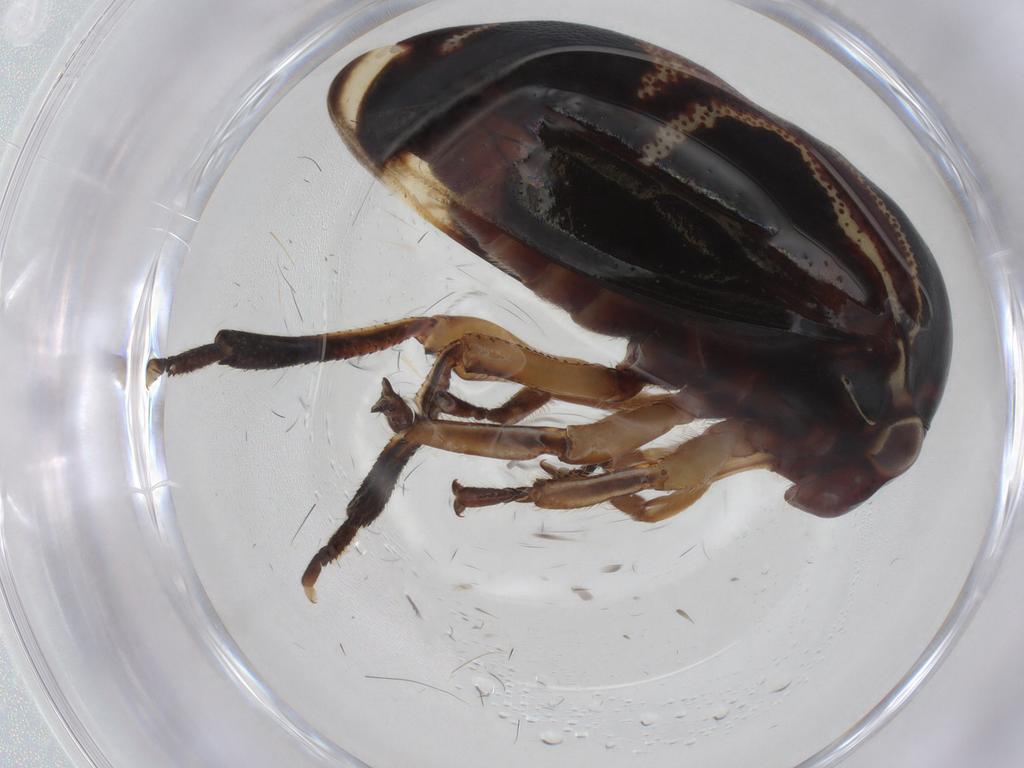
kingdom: Animalia
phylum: Arthropoda
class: Insecta
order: Hemiptera
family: Membracidae
